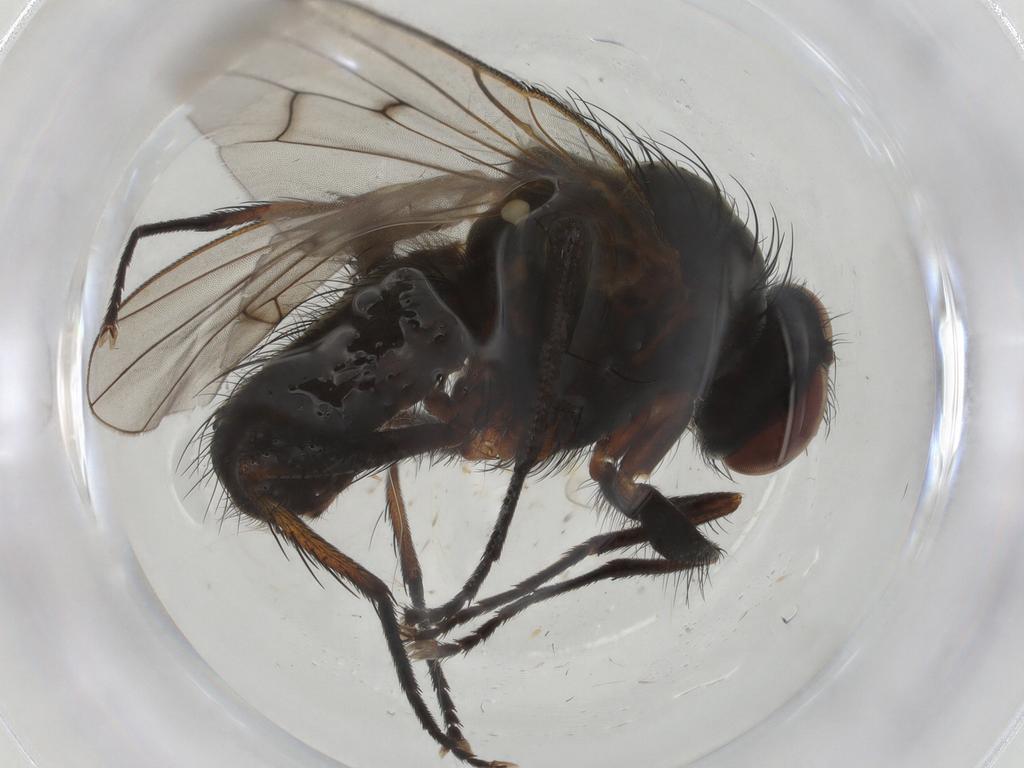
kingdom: Animalia
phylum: Arthropoda
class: Insecta
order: Diptera
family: Anthomyiidae
